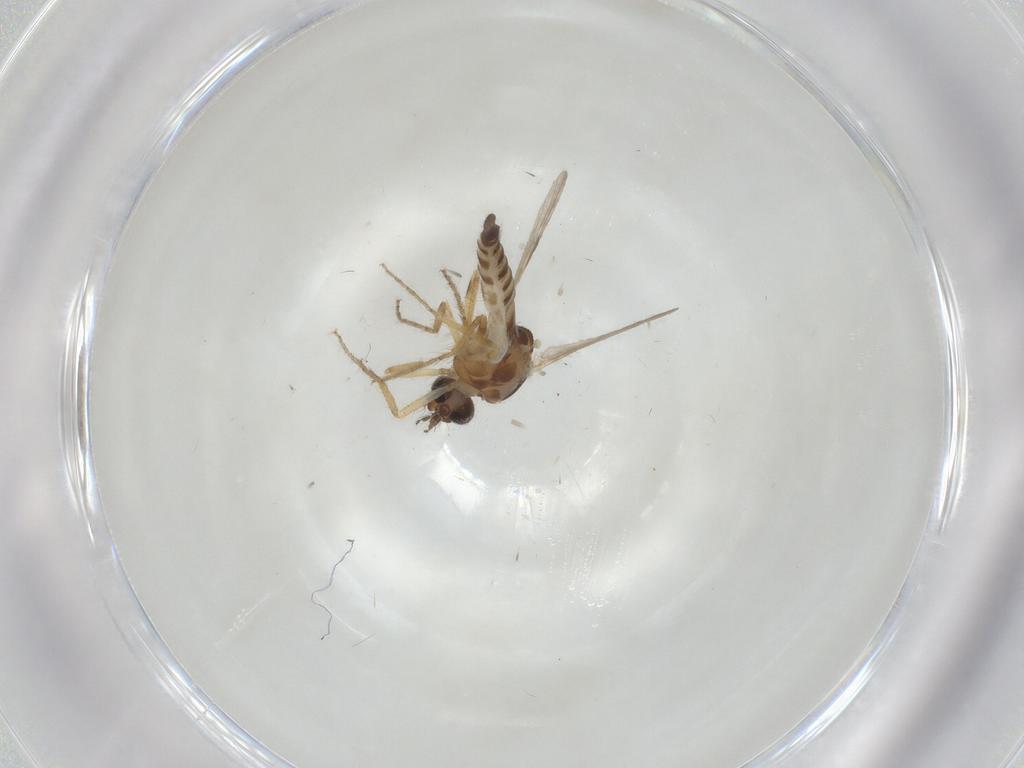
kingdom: Animalia
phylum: Arthropoda
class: Insecta
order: Diptera
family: Ceratopogonidae
